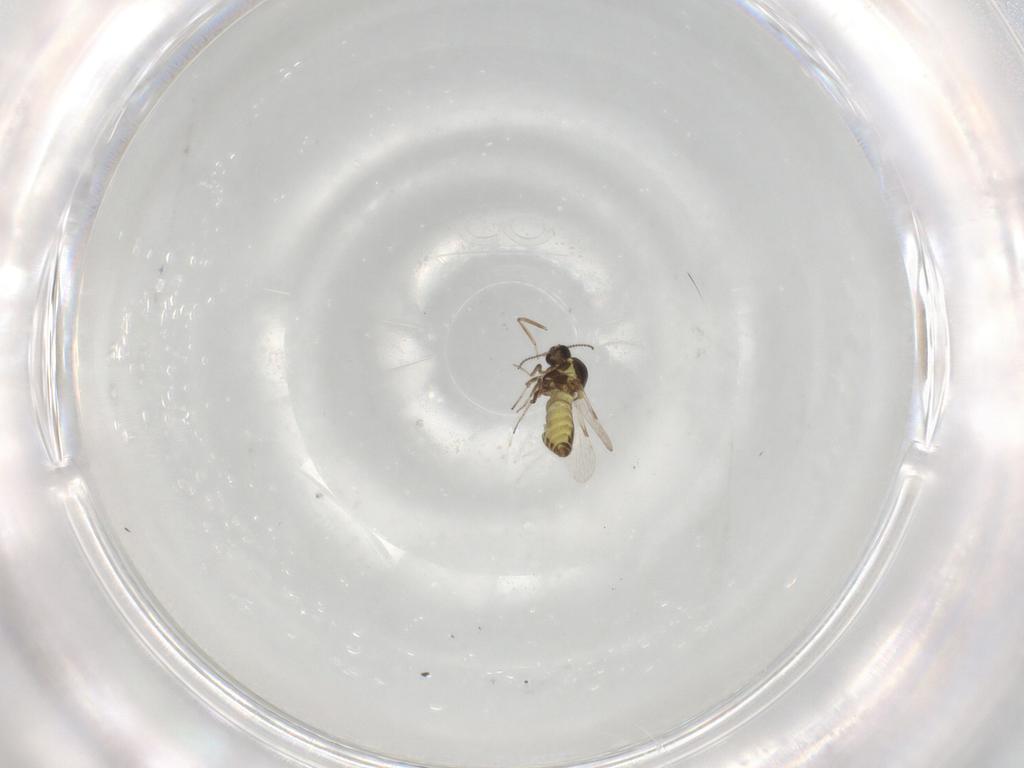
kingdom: Animalia
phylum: Arthropoda
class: Insecta
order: Diptera
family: Ceratopogonidae
